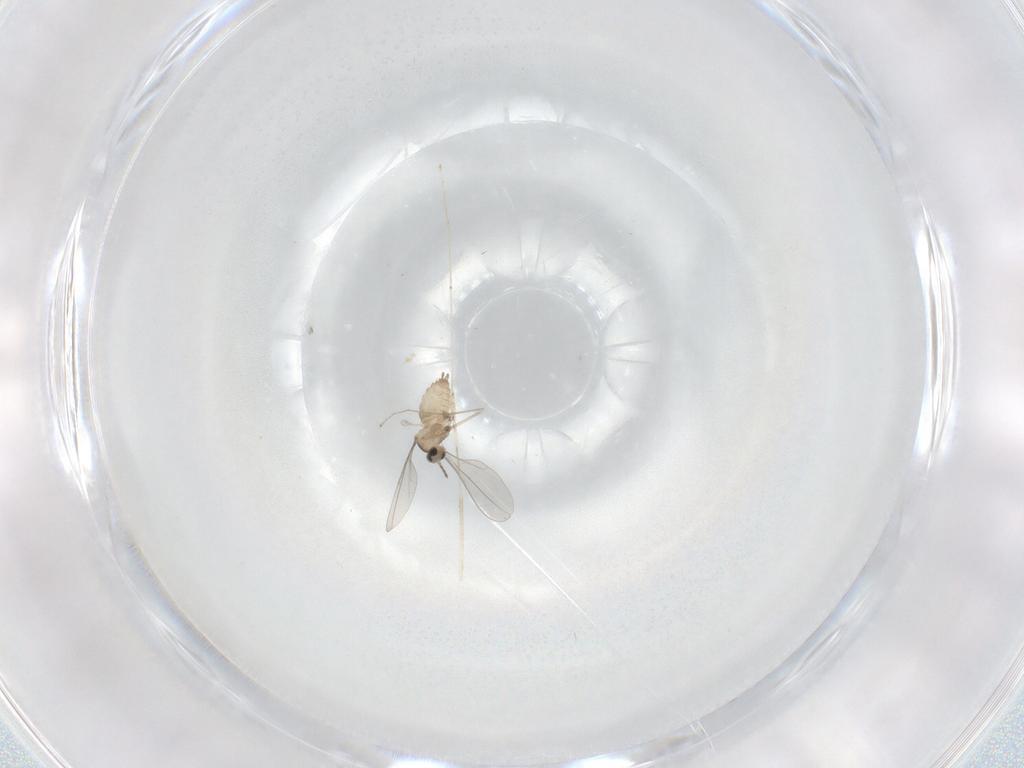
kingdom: Animalia
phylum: Arthropoda
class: Insecta
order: Diptera
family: Cecidomyiidae
